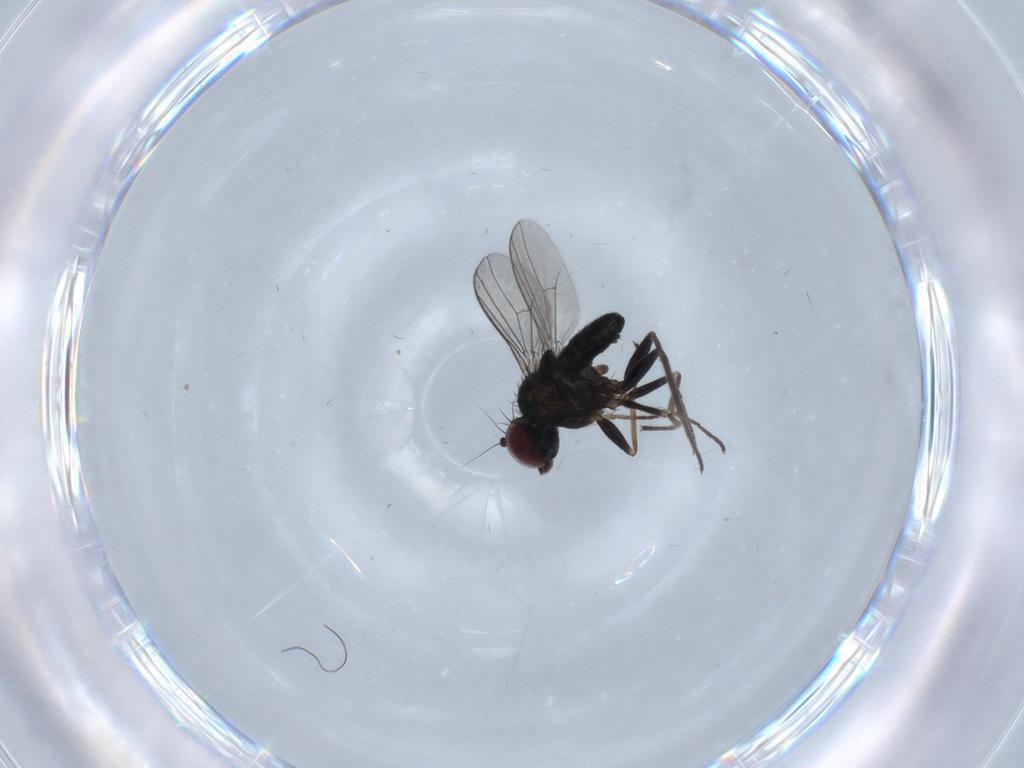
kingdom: Animalia
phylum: Arthropoda
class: Insecta
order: Diptera
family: Dolichopodidae
